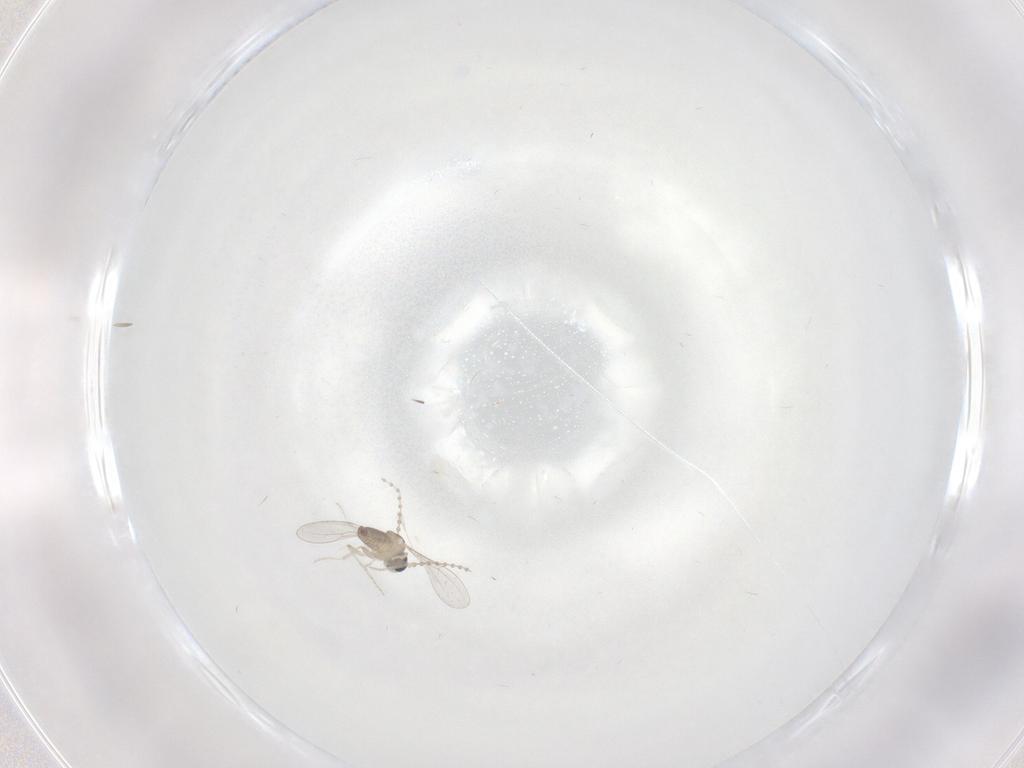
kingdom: Animalia
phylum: Arthropoda
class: Insecta
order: Diptera
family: Cecidomyiidae
